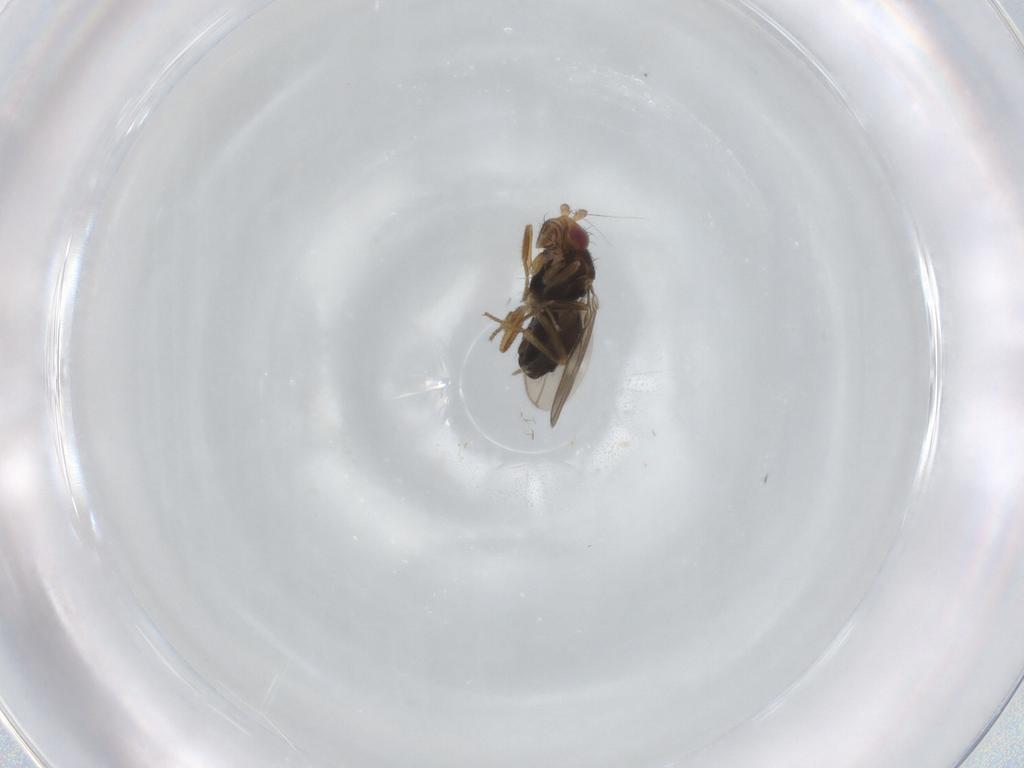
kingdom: Animalia
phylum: Arthropoda
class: Insecta
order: Diptera
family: Sphaeroceridae
